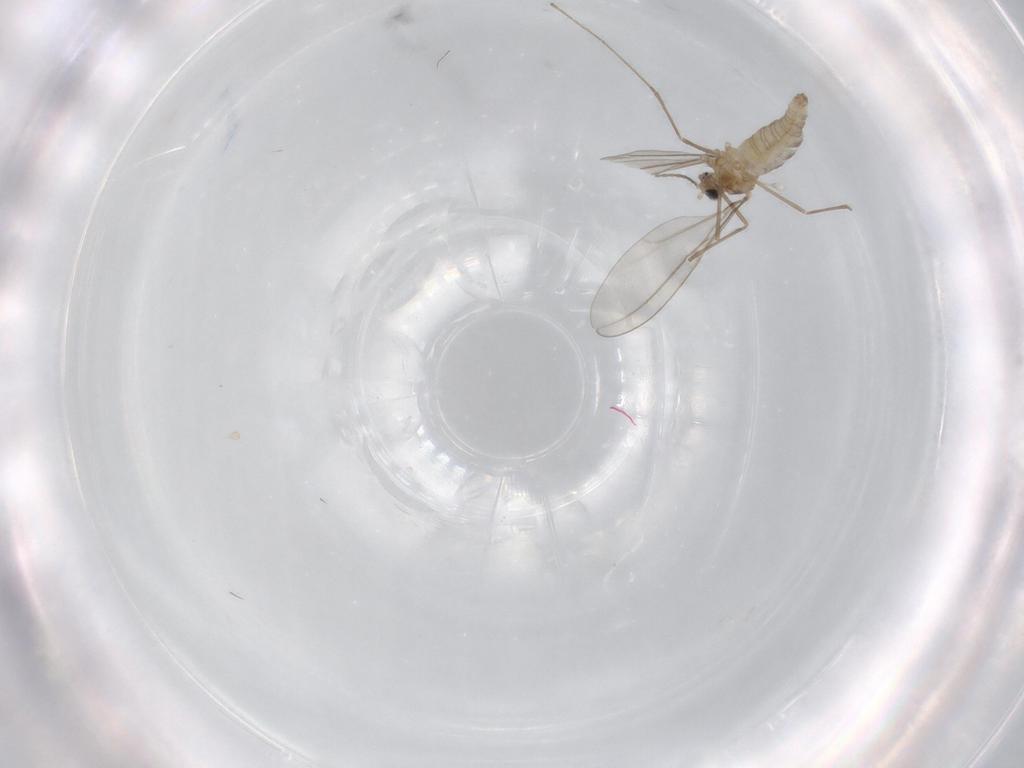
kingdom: Animalia
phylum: Arthropoda
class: Insecta
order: Diptera
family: Cecidomyiidae
